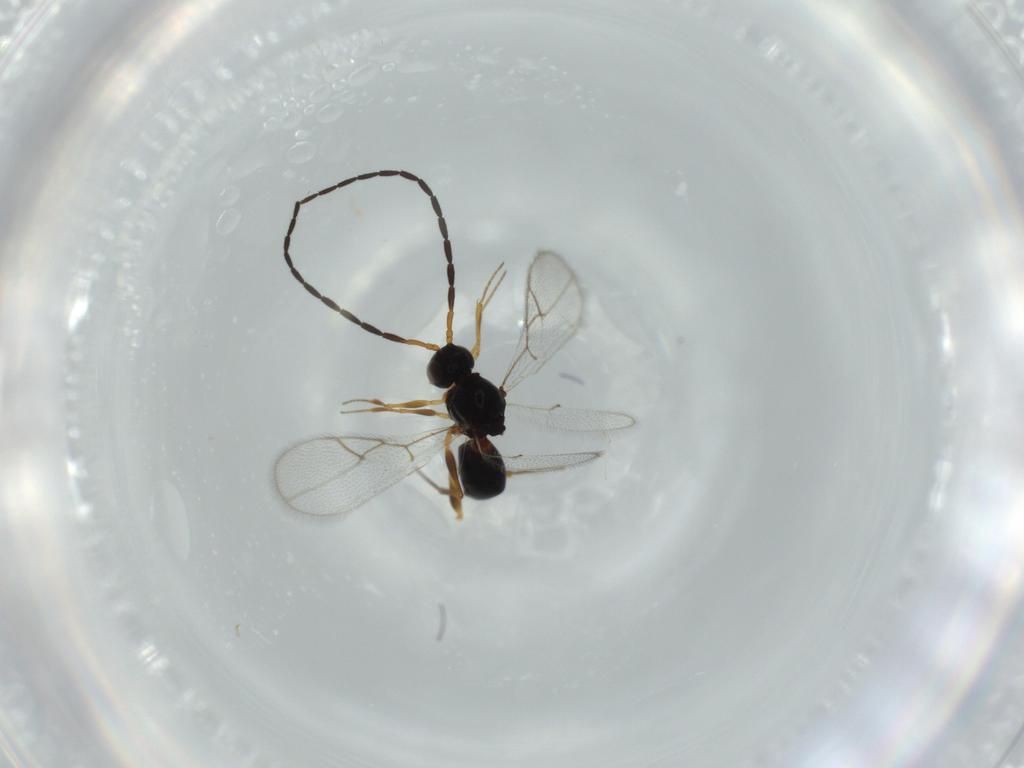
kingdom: Animalia
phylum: Arthropoda
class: Insecta
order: Hymenoptera
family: Figitidae
